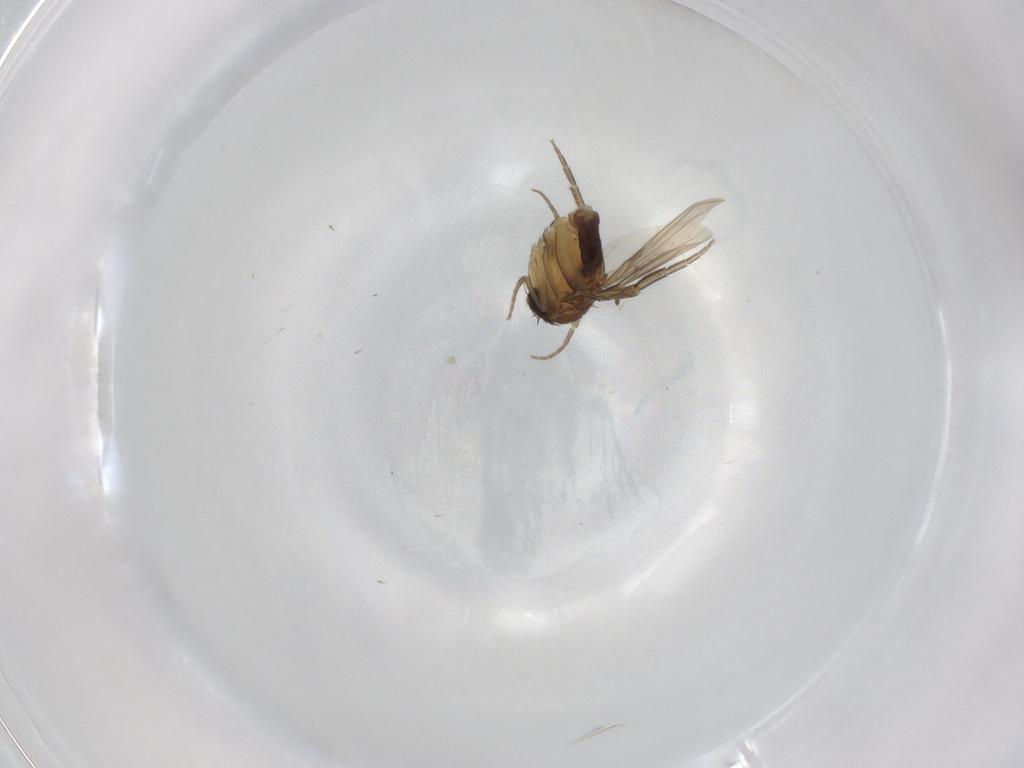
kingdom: Animalia
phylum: Arthropoda
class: Insecta
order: Diptera
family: Phoridae
